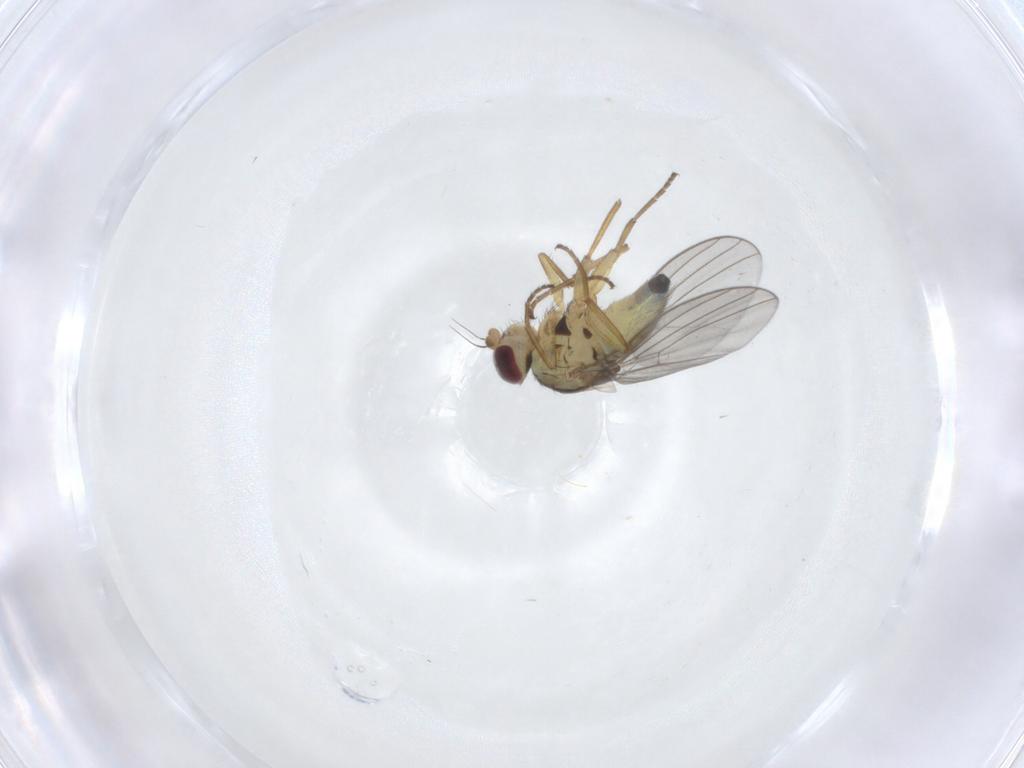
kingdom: Animalia
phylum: Arthropoda
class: Insecta
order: Diptera
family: Agromyzidae
